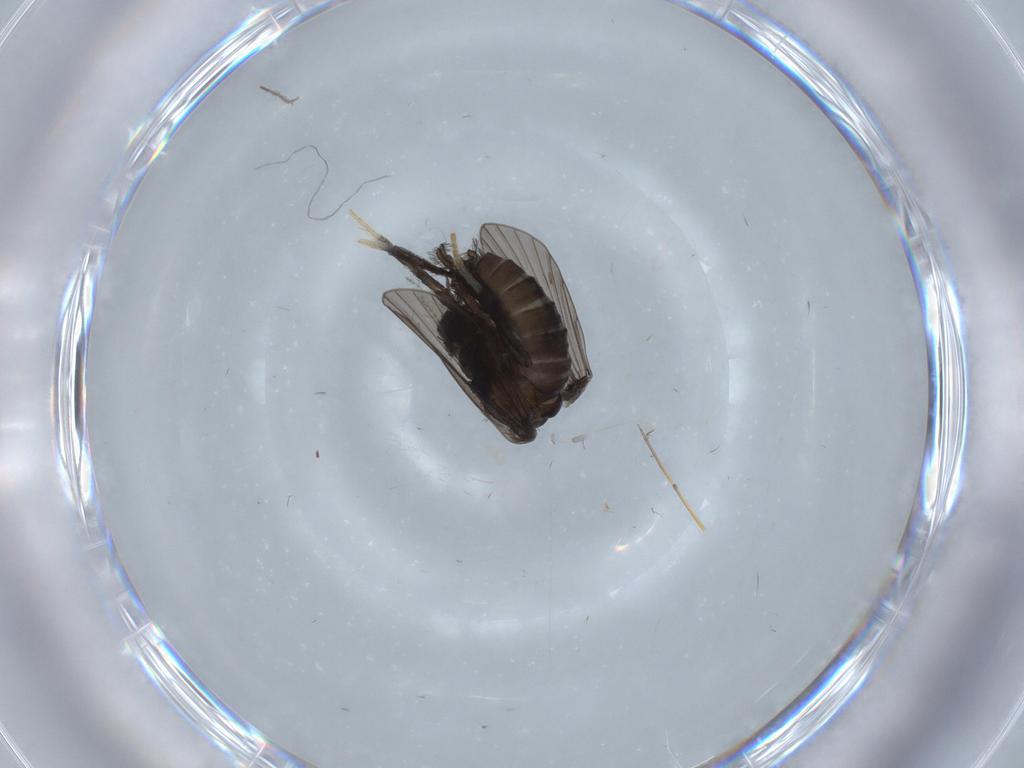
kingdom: Animalia
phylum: Arthropoda
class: Insecta
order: Diptera
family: Psychodidae
